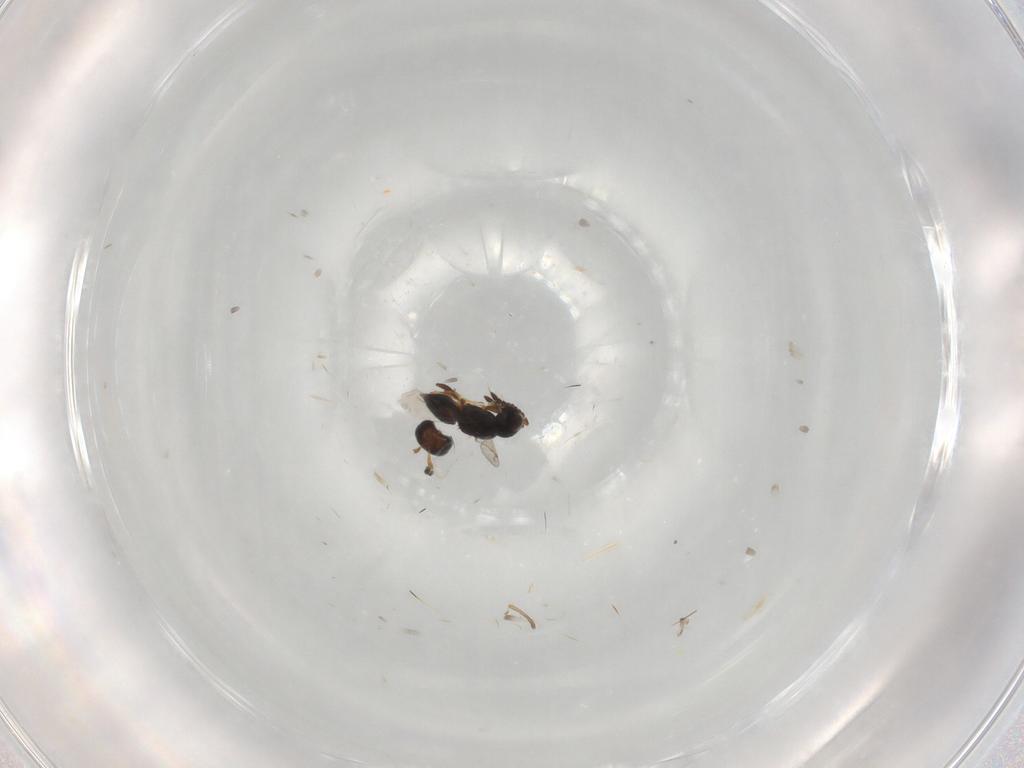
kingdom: Animalia
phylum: Arthropoda
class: Insecta
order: Hymenoptera
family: Scelionidae
